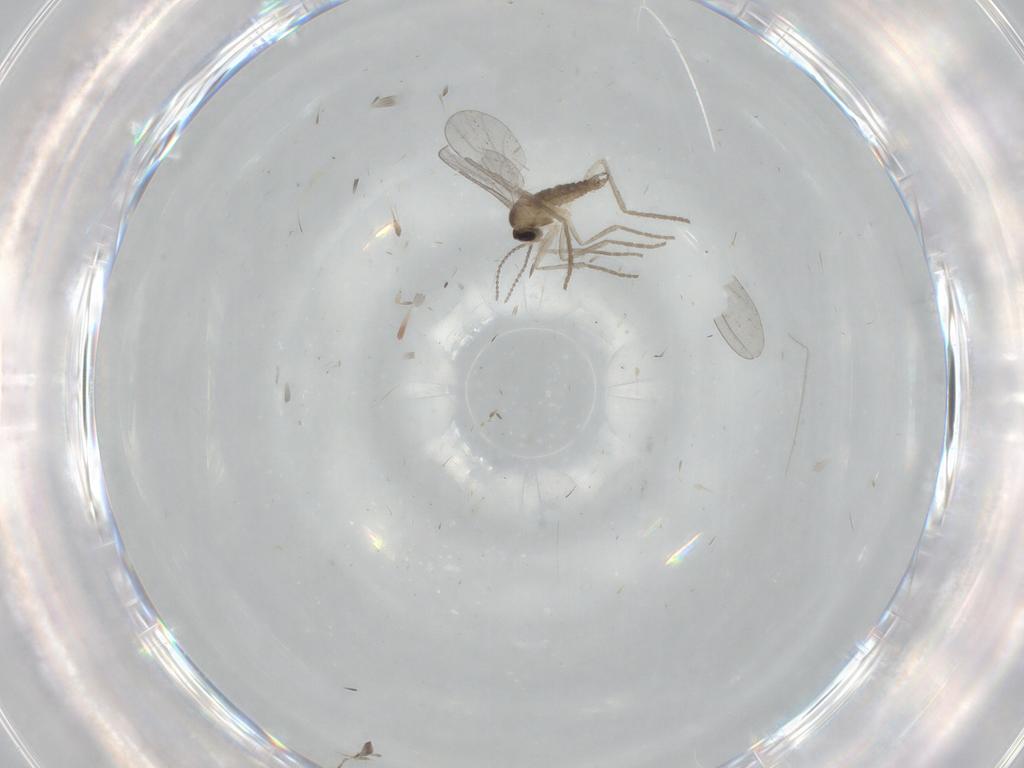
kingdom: Animalia
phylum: Arthropoda
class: Insecta
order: Diptera
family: Cecidomyiidae
